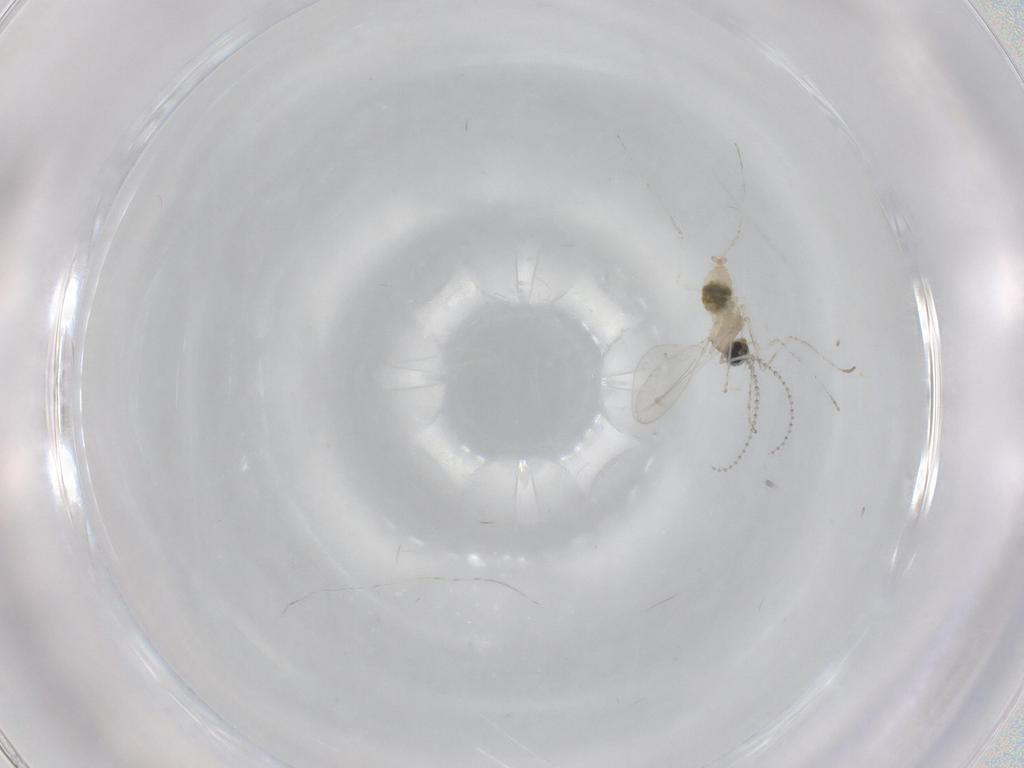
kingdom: Animalia
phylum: Arthropoda
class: Insecta
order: Diptera
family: Cecidomyiidae
